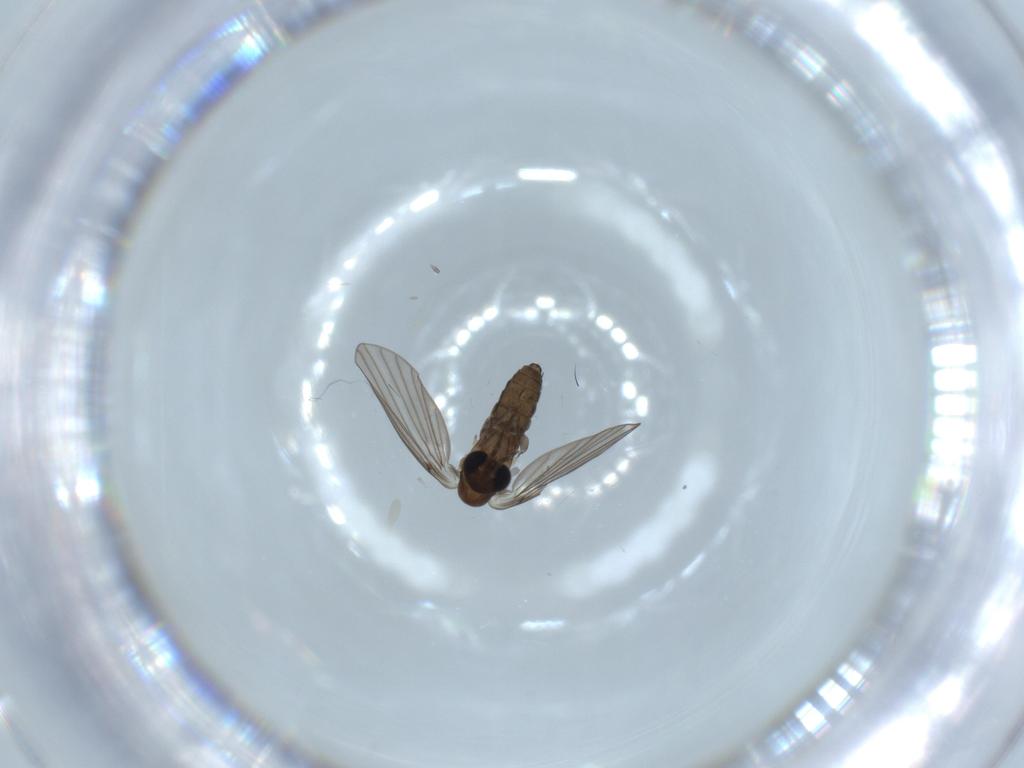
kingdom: Animalia
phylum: Arthropoda
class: Insecta
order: Diptera
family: Psychodidae
